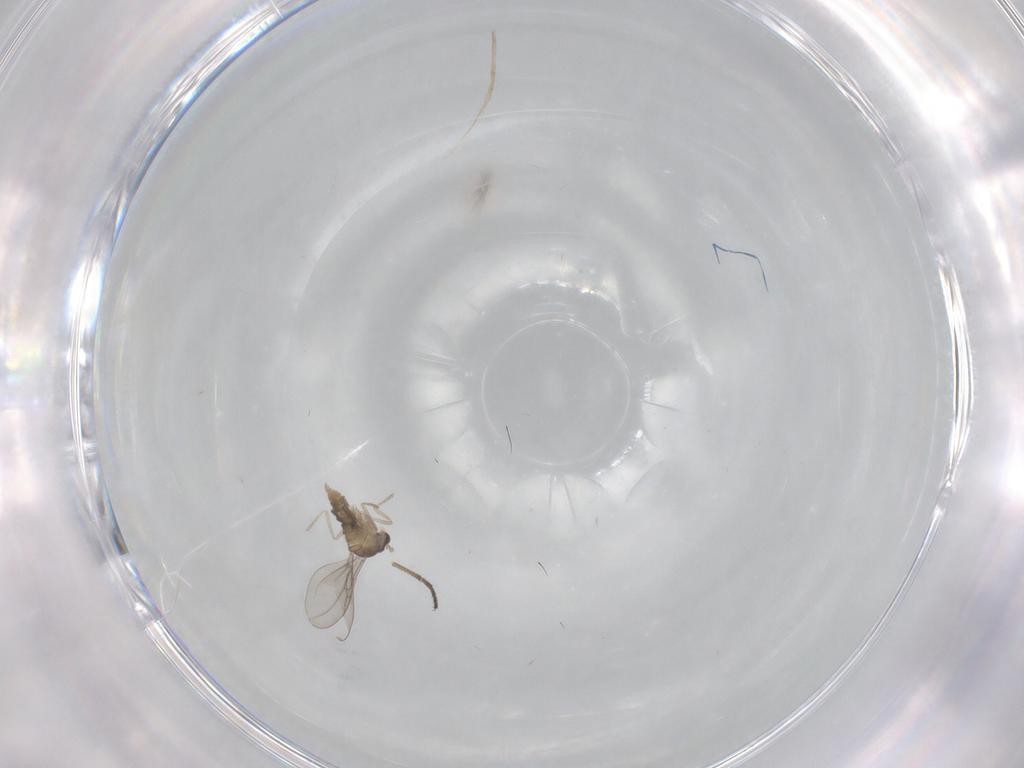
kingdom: Animalia
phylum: Arthropoda
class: Insecta
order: Diptera
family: Cecidomyiidae
